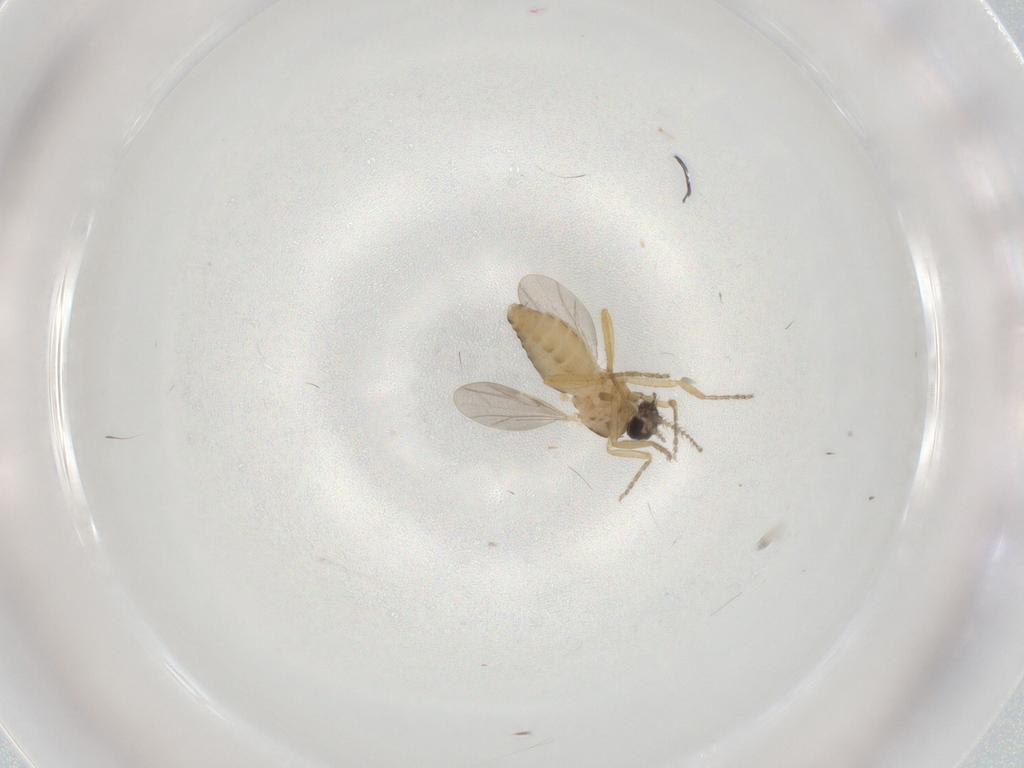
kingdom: Animalia
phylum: Arthropoda
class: Insecta
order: Diptera
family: Ceratopogonidae
